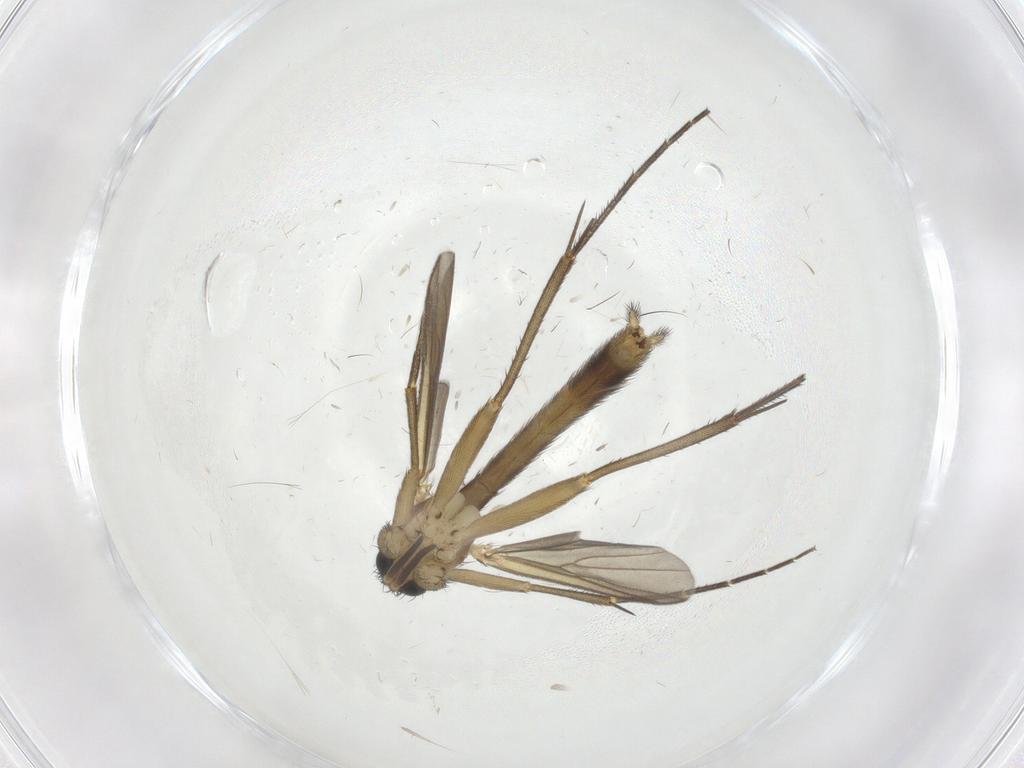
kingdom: Animalia
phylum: Arthropoda
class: Insecta
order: Diptera
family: Mycetophilidae
